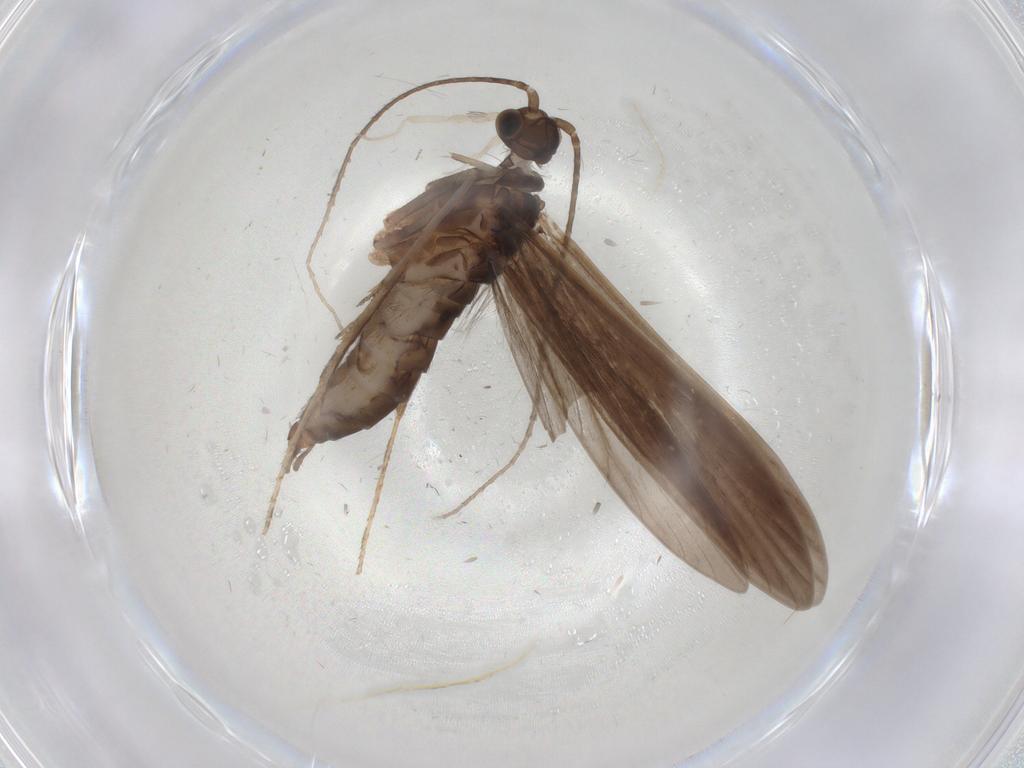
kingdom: Animalia
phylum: Arthropoda
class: Insecta
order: Trichoptera
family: Xiphocentronidae
